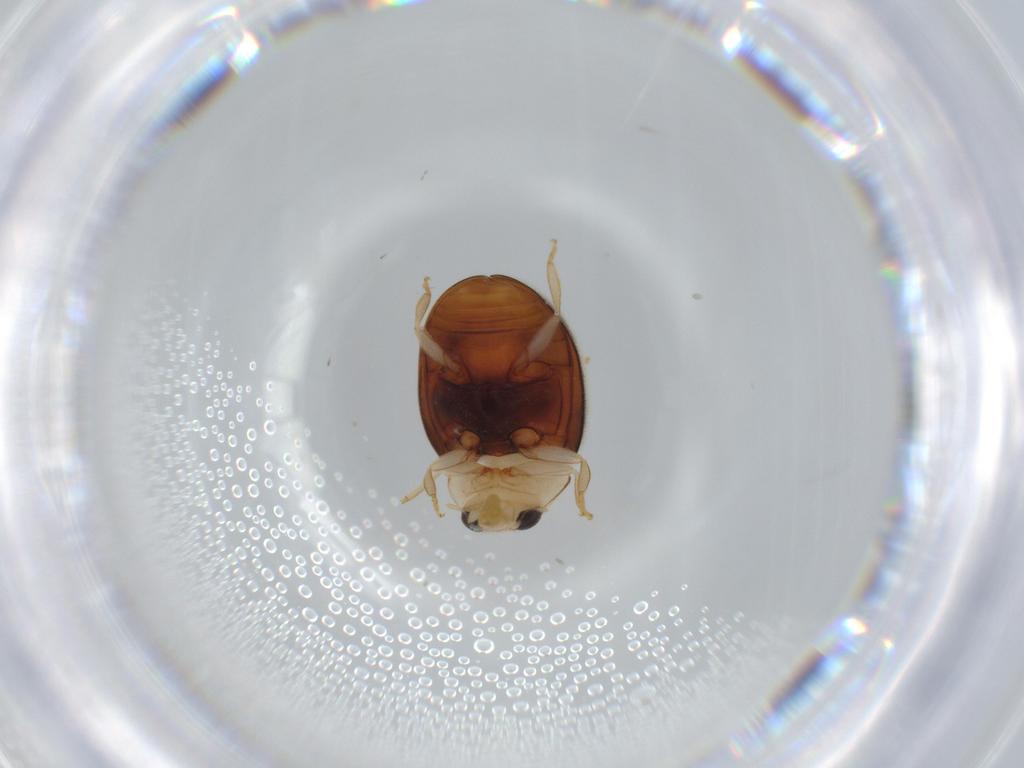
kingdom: Animalia
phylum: Arthropoda
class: Insecta
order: Coleoptera
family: Coccinellidae
